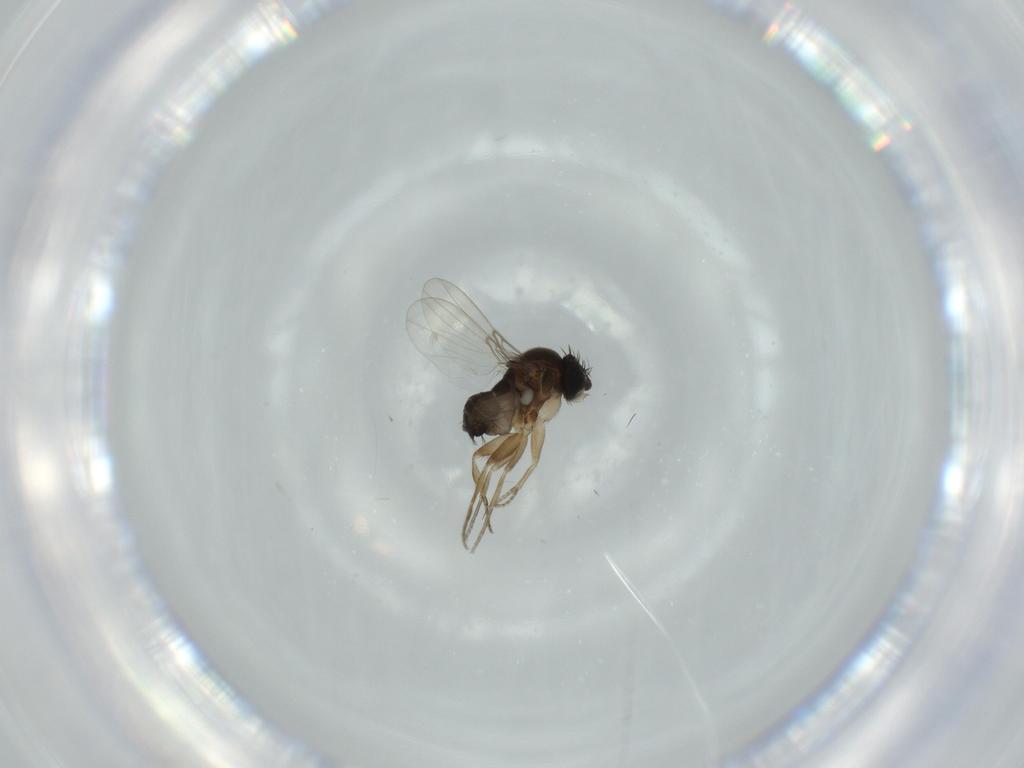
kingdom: Animalia
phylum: Arthropoda
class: Insecta
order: Diptera
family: Phoridae
